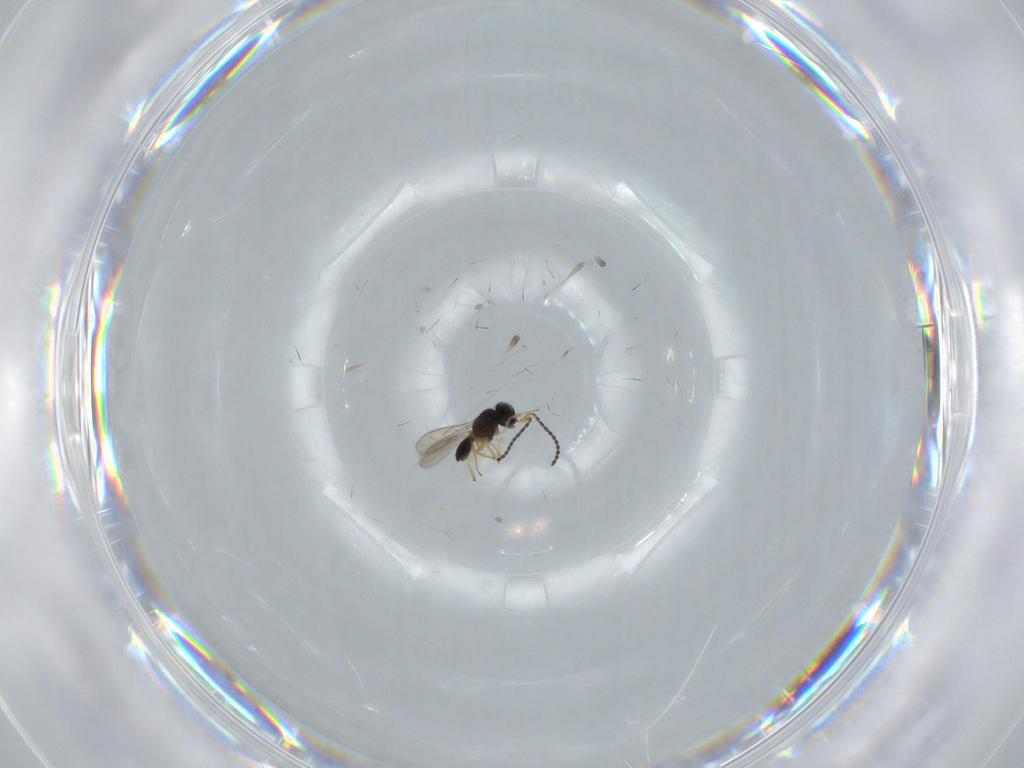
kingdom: Animalia
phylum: Arthropoda
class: Insecta
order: Hymenoptera
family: Scelionidae
